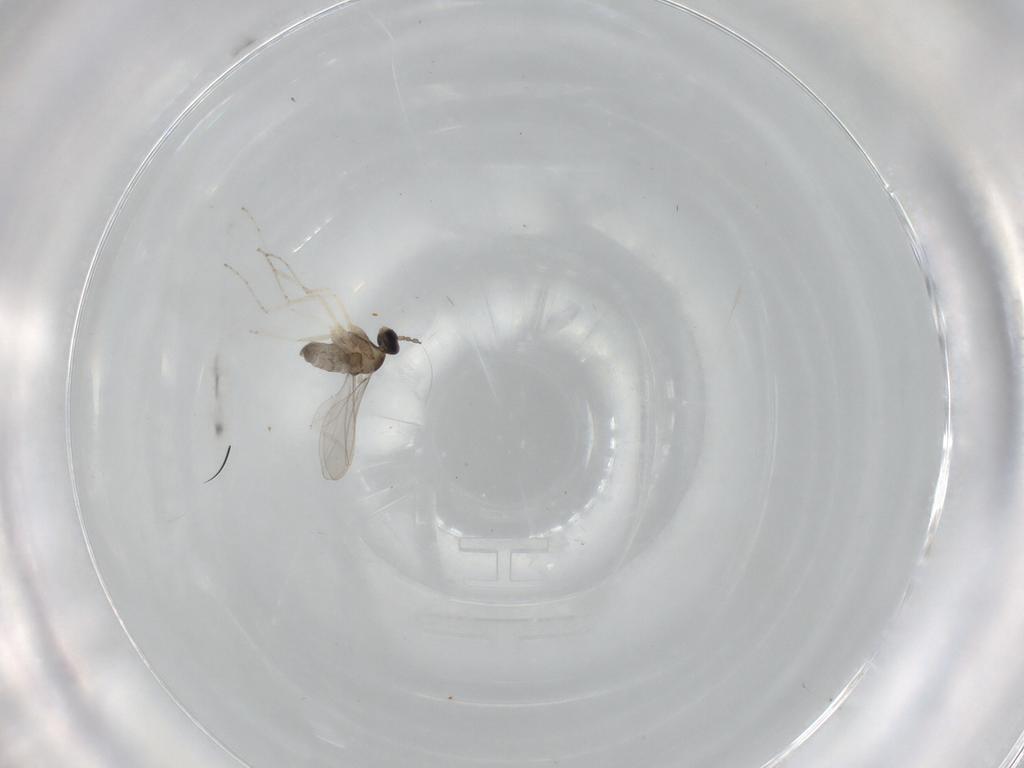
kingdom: Animalia
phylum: Arthropoda
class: Insecta
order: Diptera
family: Cecidomyiidae
